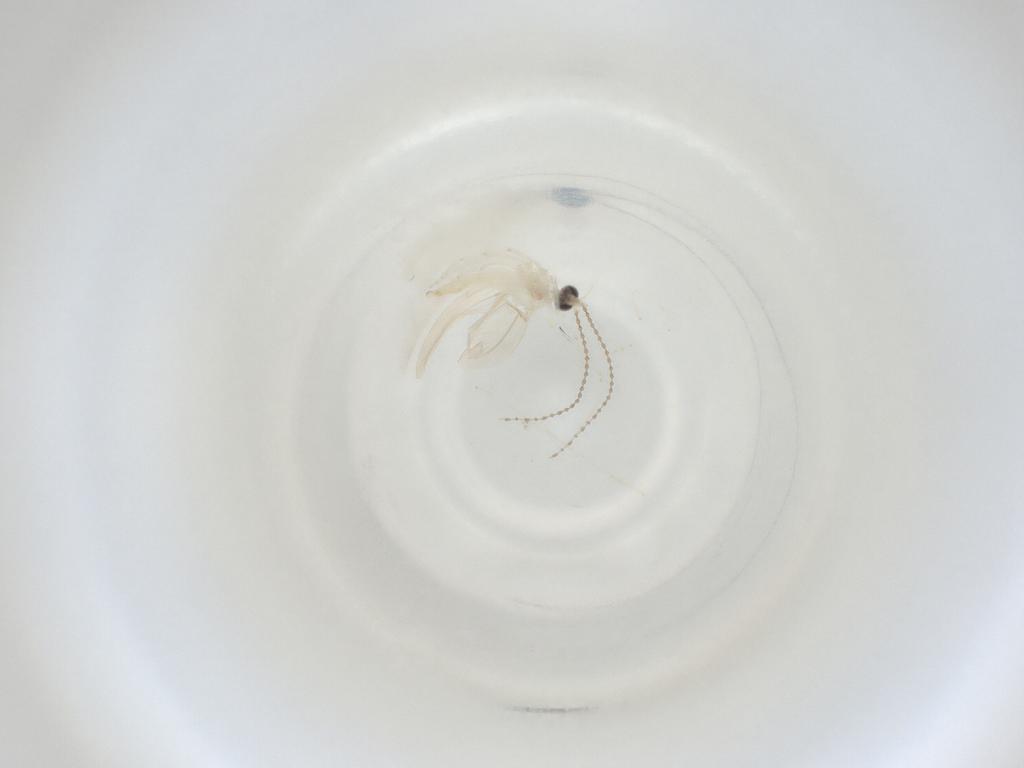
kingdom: Animalia
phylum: Arthropoda
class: Insecta
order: Diptera
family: Cecidomyiidae
